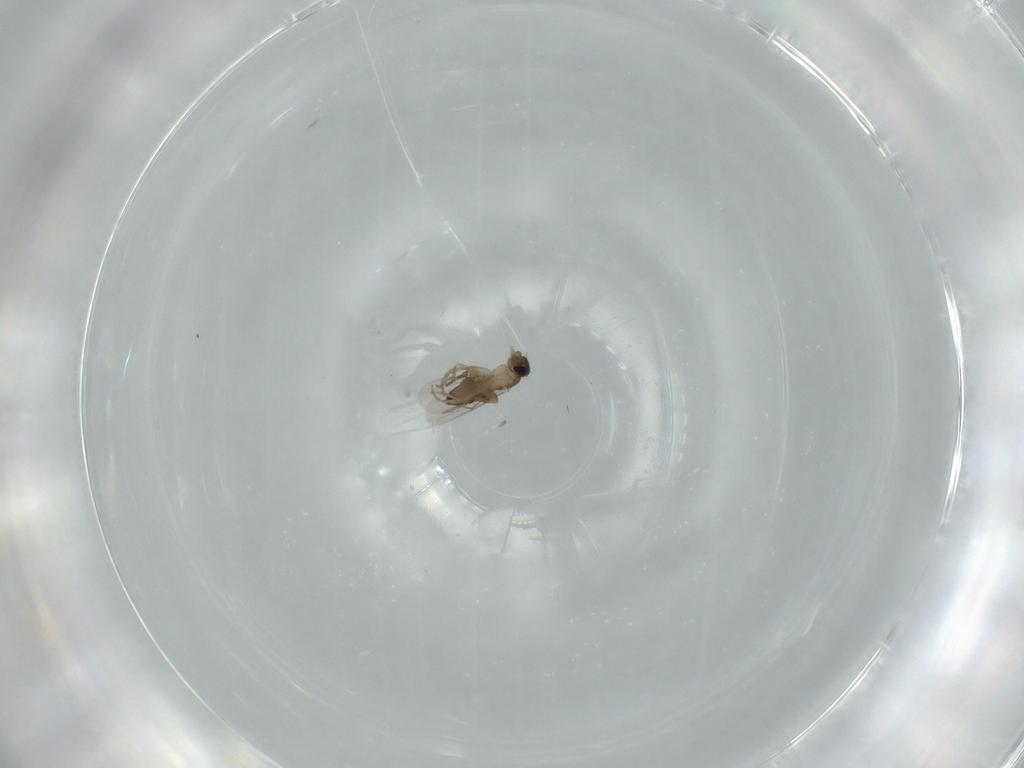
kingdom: Animalia
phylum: Arthropoda
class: Insecta
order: Diptera
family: Phoridae
